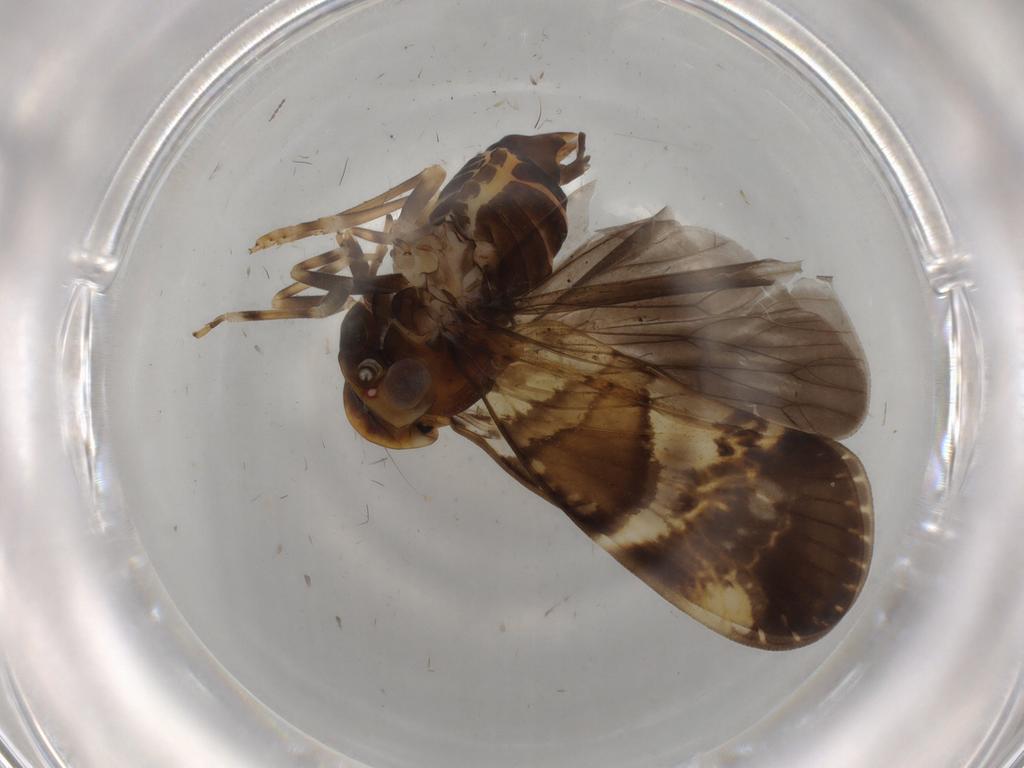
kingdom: Animalia
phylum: Arthropoda
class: Insecta
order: Hemiptera
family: Cixiidae
